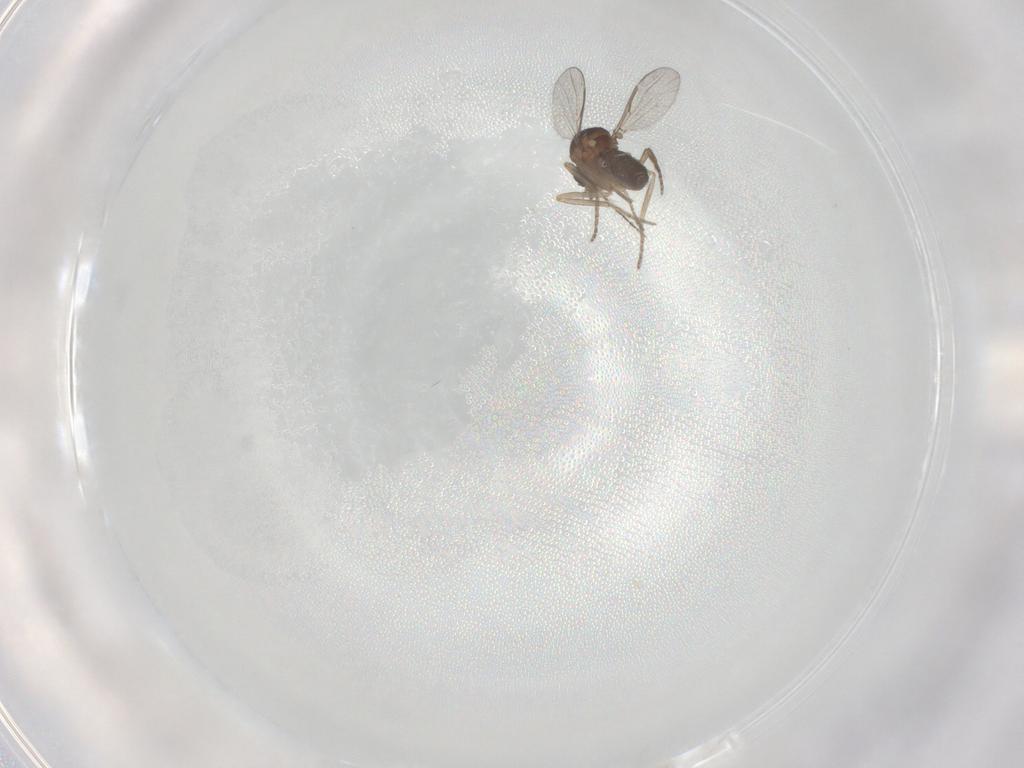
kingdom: Animalia
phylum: Arthropoda
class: Insecta
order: Diptera
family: Ceratopogonidae
